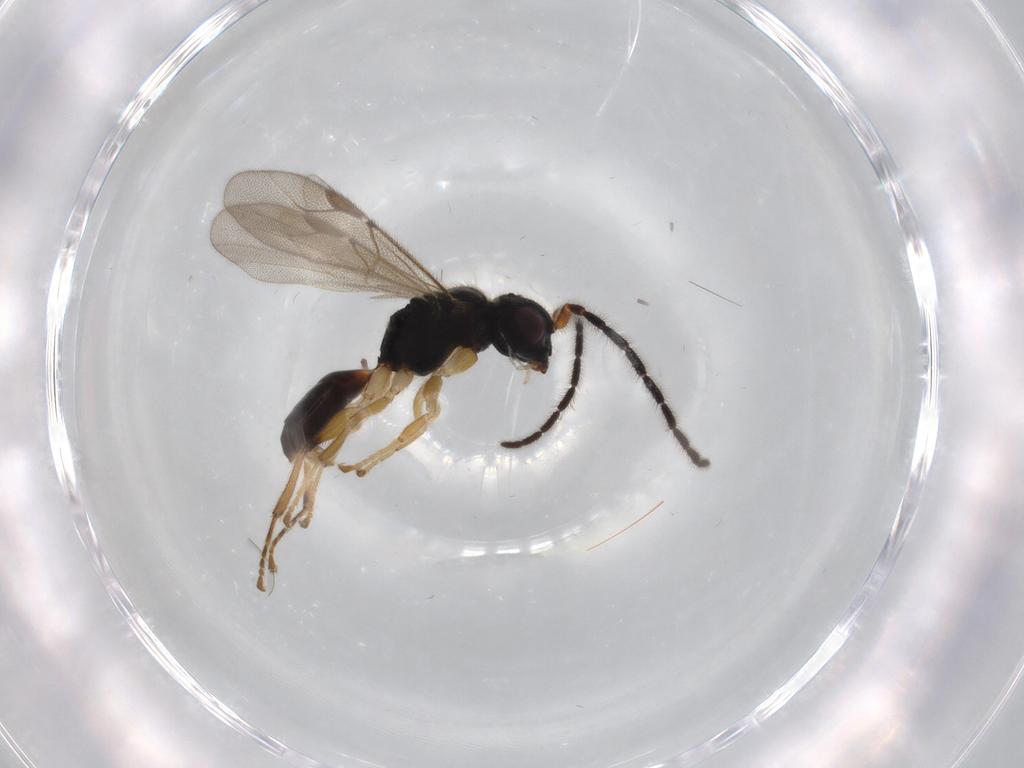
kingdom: Animalia
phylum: Arthropoda
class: Insecta
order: Hymenoptera
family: Dryinidae
